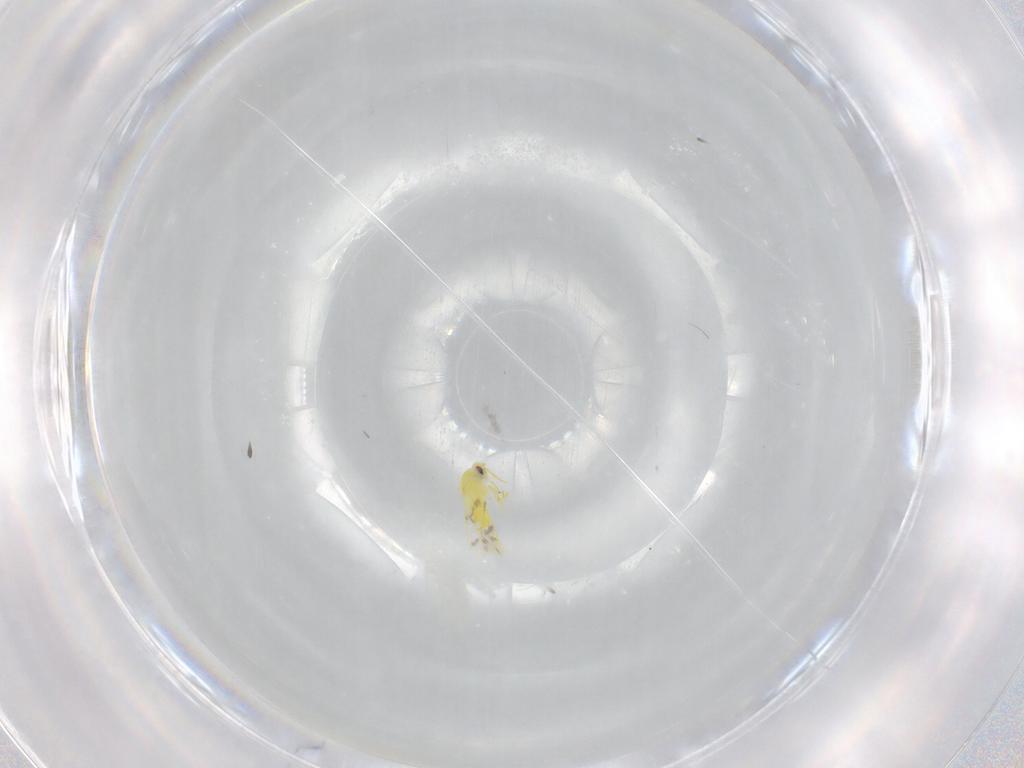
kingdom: Animalia
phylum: Arthropoda
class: Insecta
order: Hemiptera
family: Aleyrodidae
